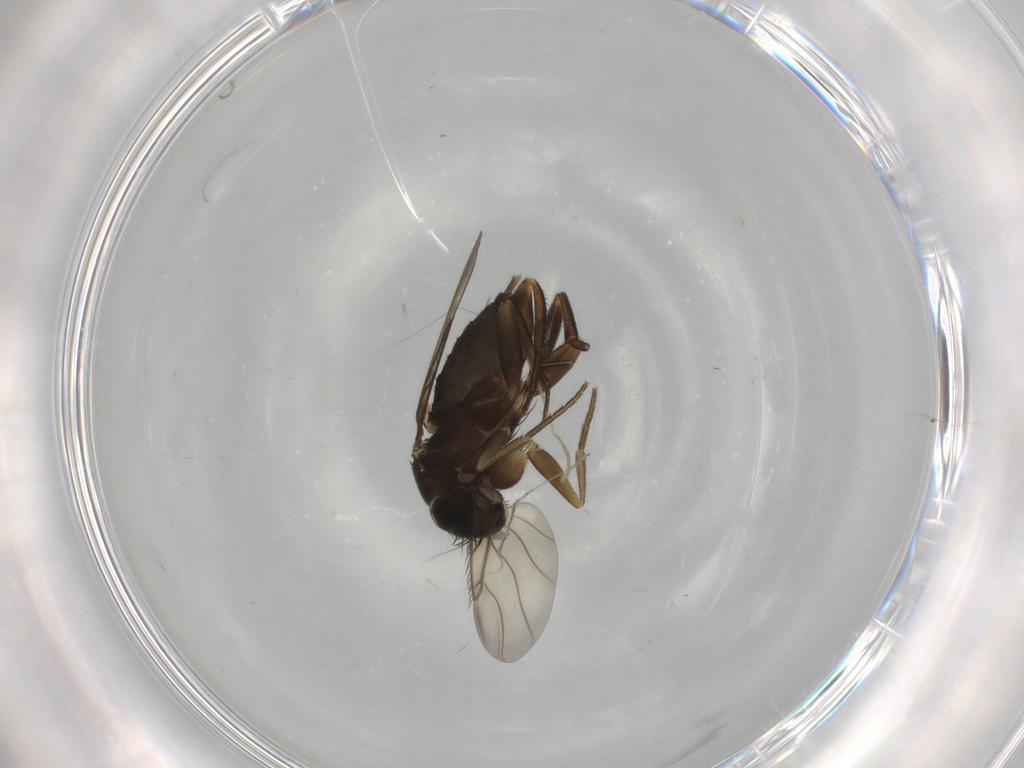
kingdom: Animalia
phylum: Arthropoda
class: Insecta
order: Diptera
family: Phoridae
